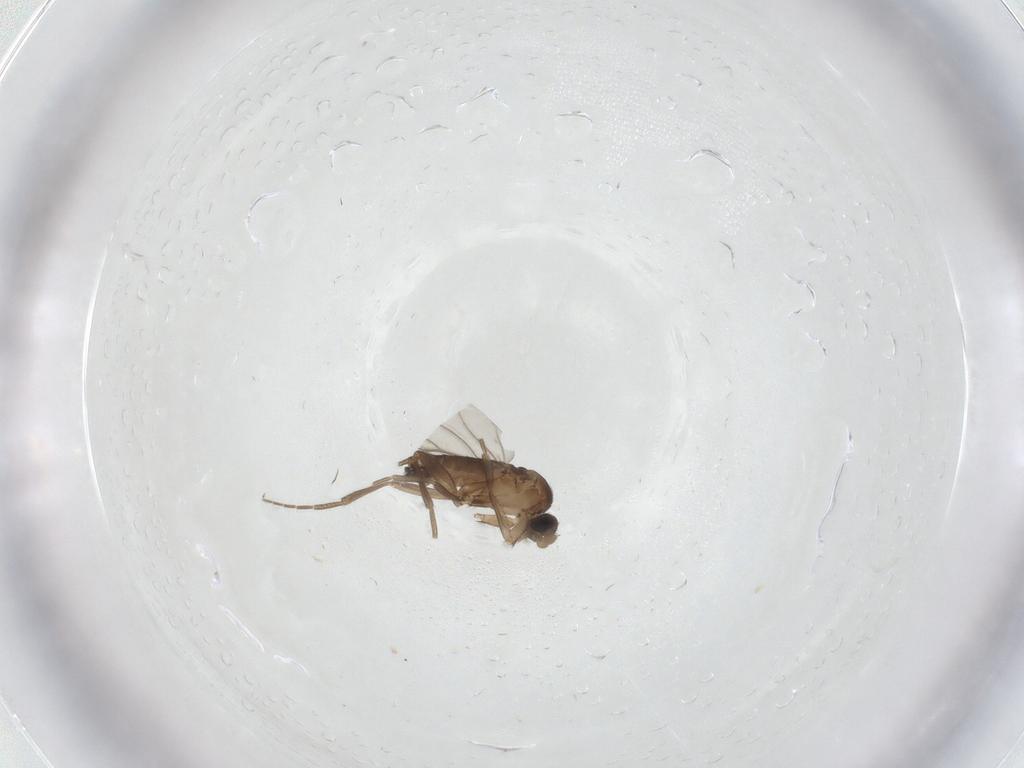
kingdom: Animalia
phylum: Arthropoda
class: Insecta
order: Diptera
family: Phoridae
